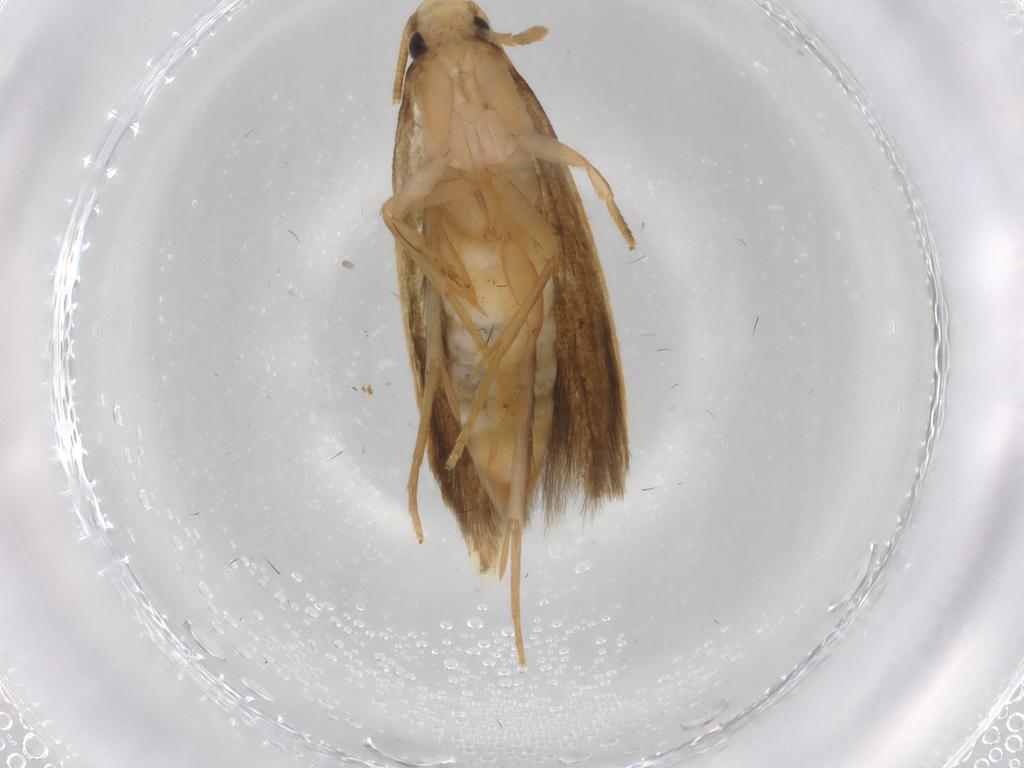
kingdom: Animalia
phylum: Arthropoda
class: Insecta
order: Lepidoptera
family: Tineidae
